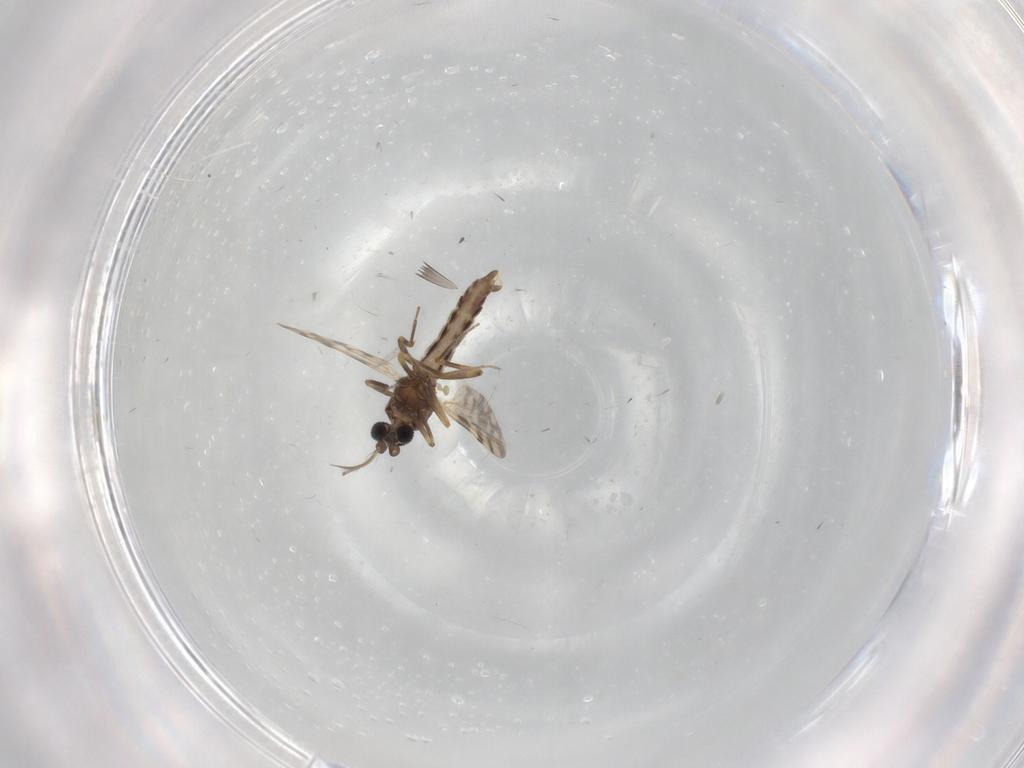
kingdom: Animalia
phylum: Arthropoda
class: Insecta
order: Diptera
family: Ceratopogonidae
